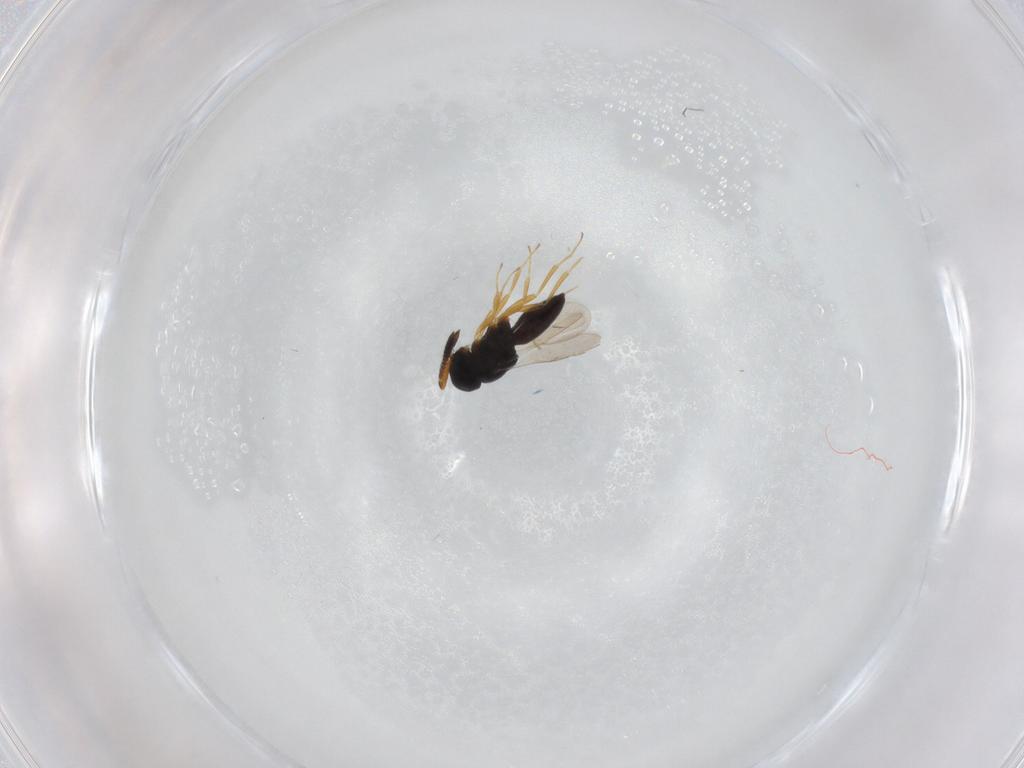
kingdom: Animalia
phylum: Arthropoda
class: Insecta
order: Hymenoptera
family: Scelionidae
